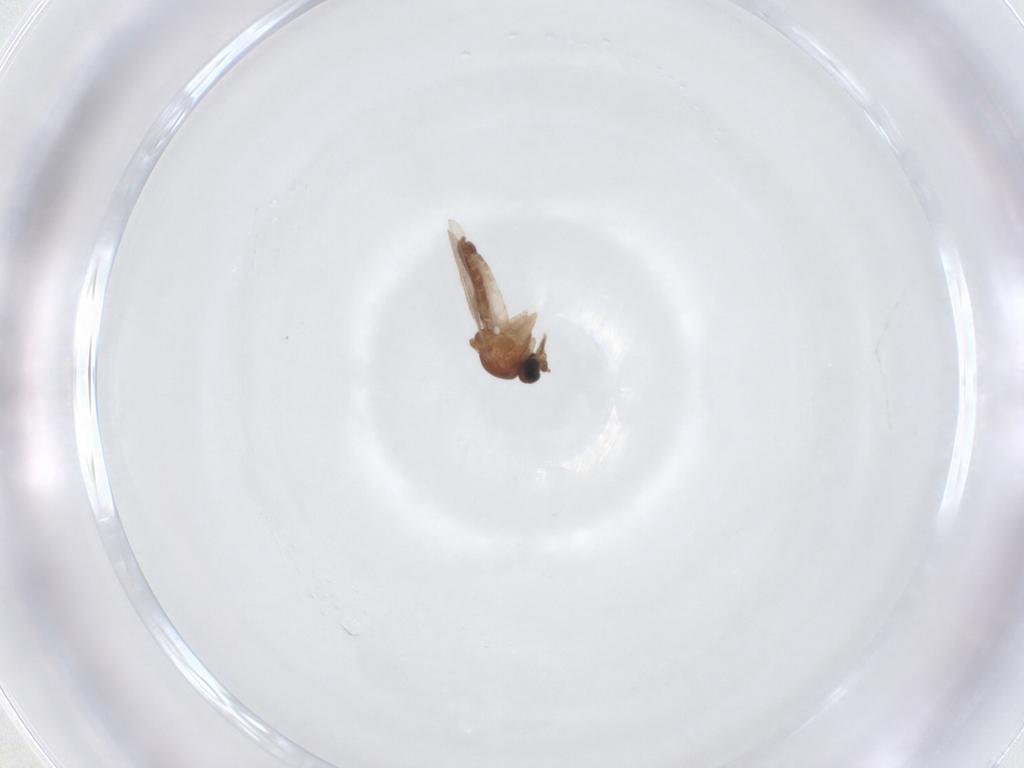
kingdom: Animalia
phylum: Arthropoda
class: Insecta
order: Diptera
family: Ceratopogonidae
